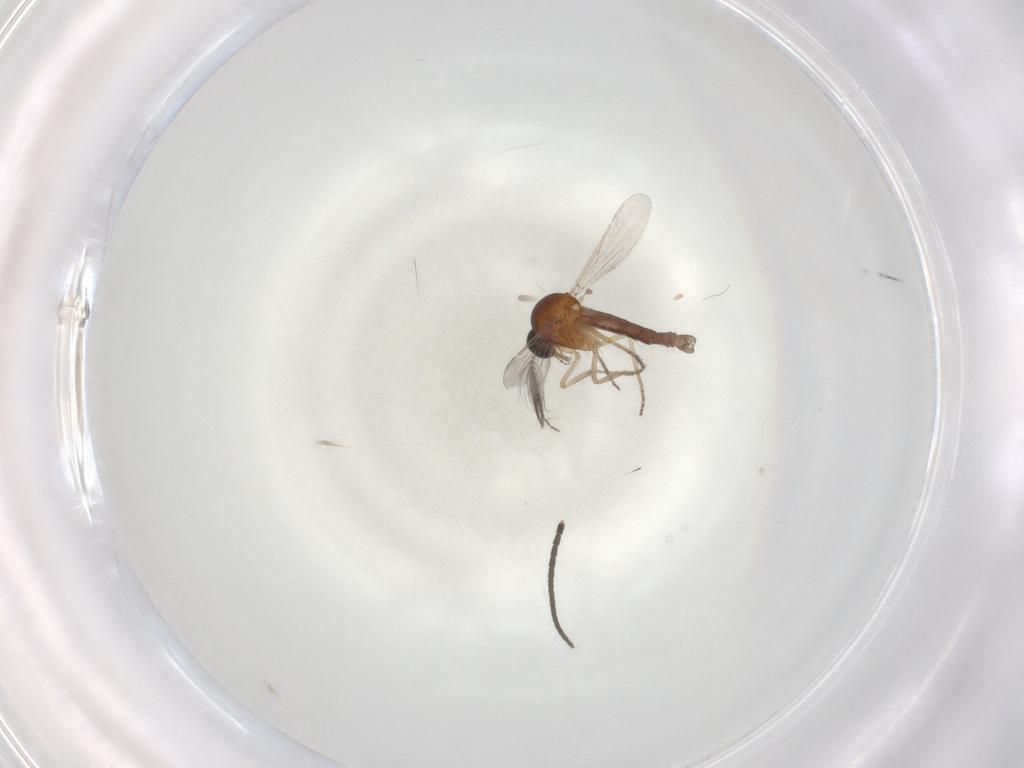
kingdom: Animalia
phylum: Arthropoda
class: Insecta
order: Diptera
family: Ceratopogonidae
